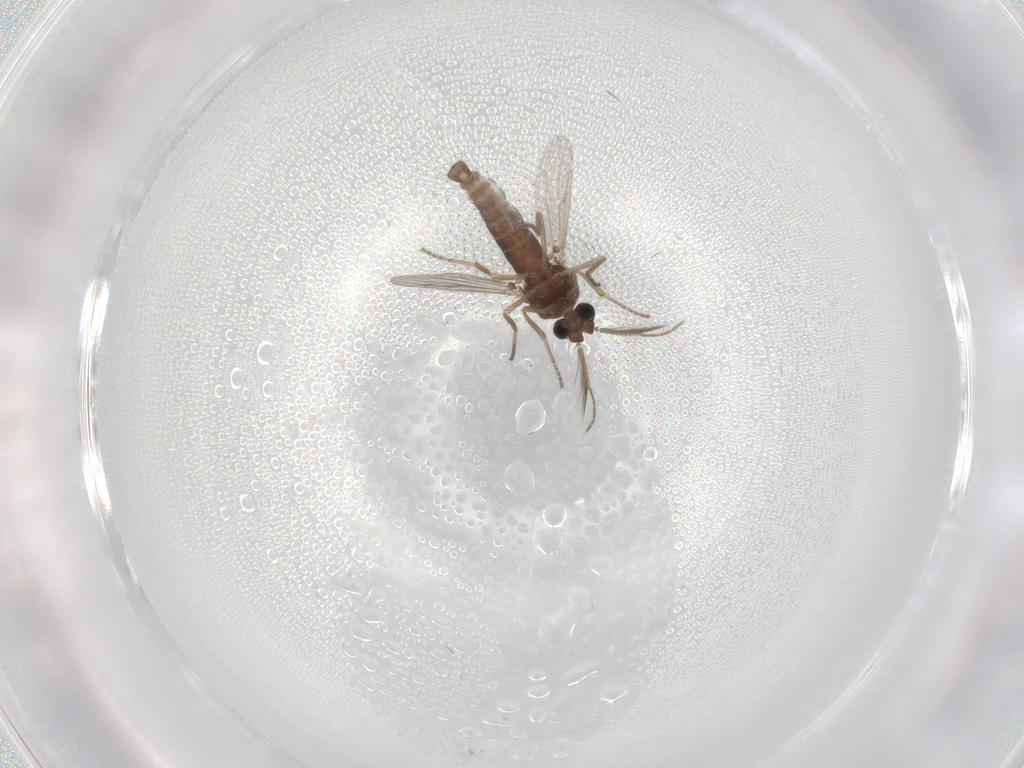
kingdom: Animalia
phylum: Arthropoda
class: Insecta
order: Diptera
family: Ceratopogonidae
